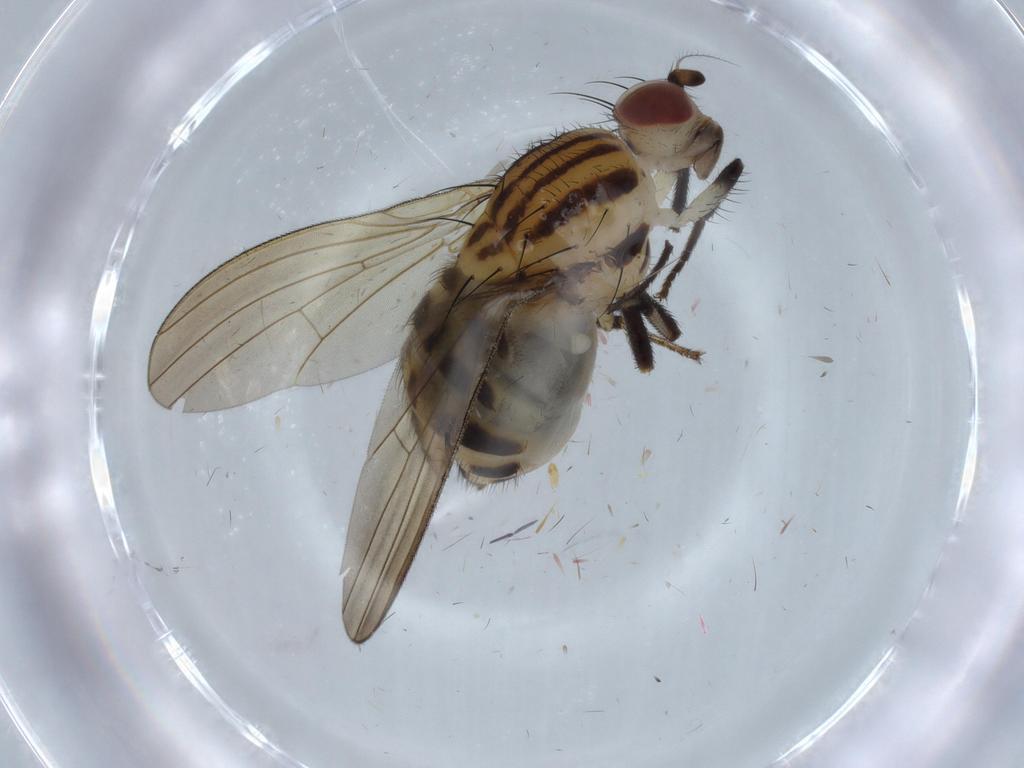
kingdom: Animalia
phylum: Arthropoda
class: Insecta
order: Diptera
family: Lauxaniidae
